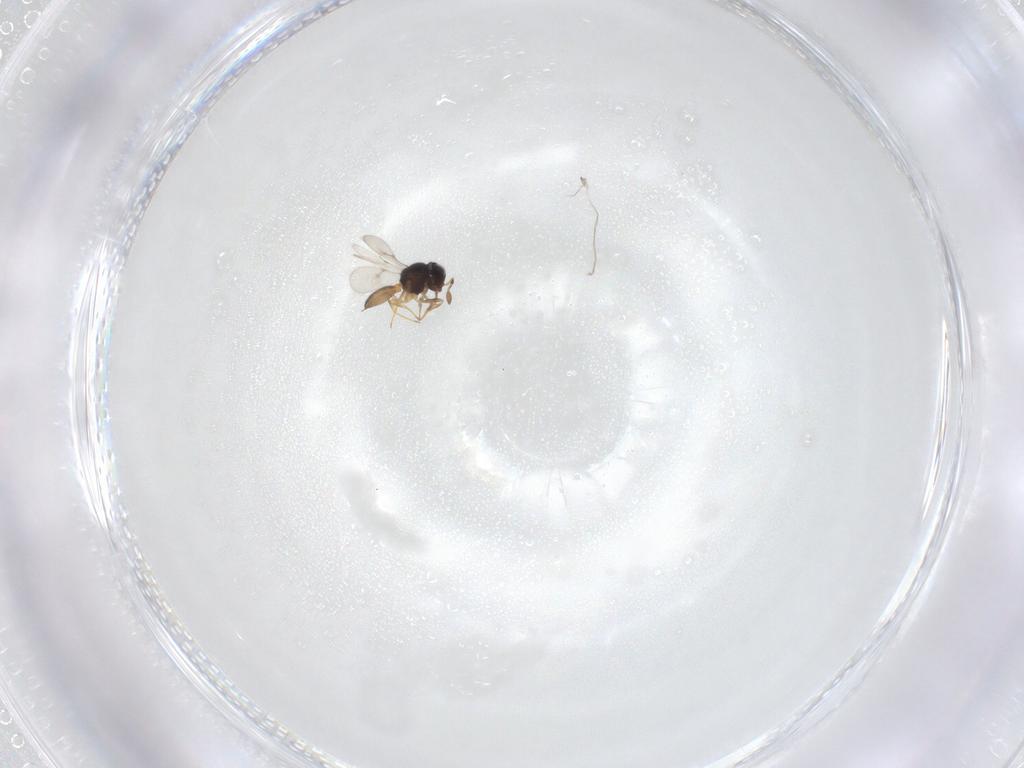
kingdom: Animalia
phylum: Arthropoda
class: Insecta
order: Hymenoptera
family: Scelionidae
